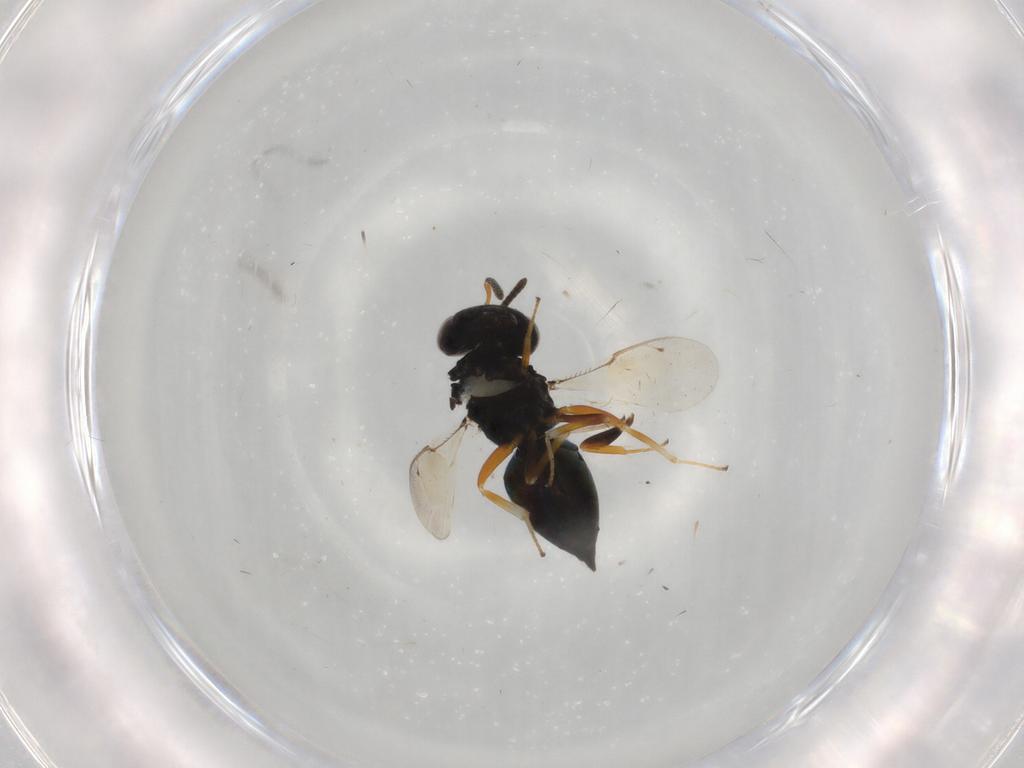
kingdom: Animalia
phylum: Arthropoda
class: Insecta
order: Hymenoptera
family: Pteromalidae
